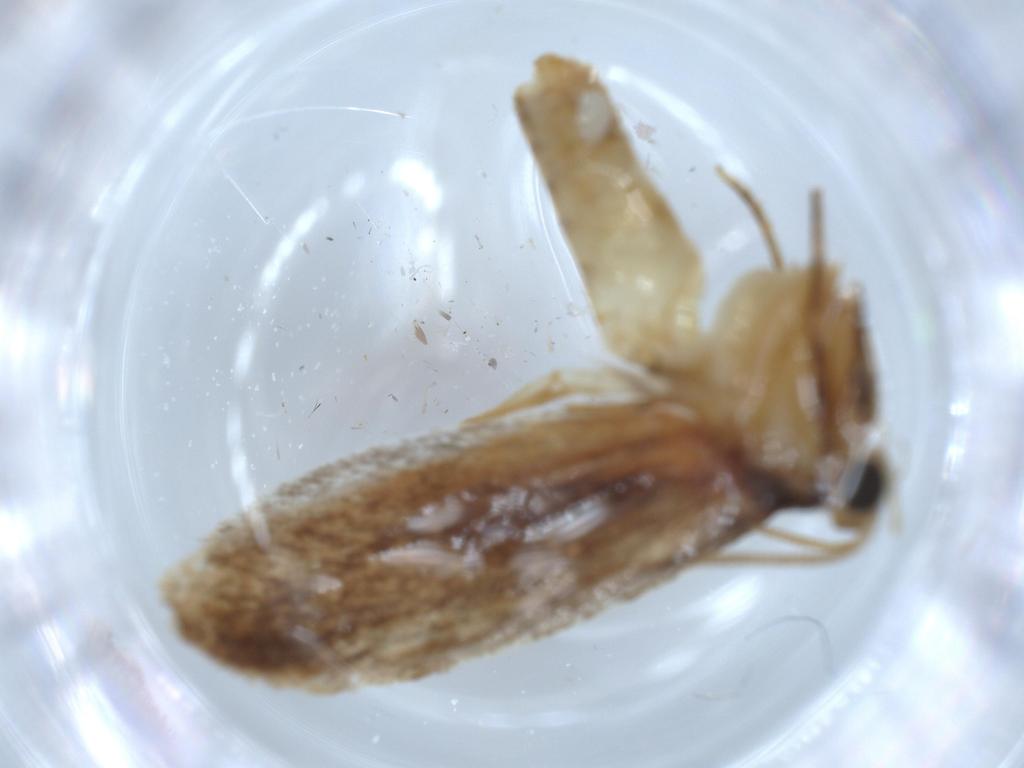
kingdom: Animalia
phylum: Arthropoda
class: Insecta
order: Lepidoptera
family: Tineidae
